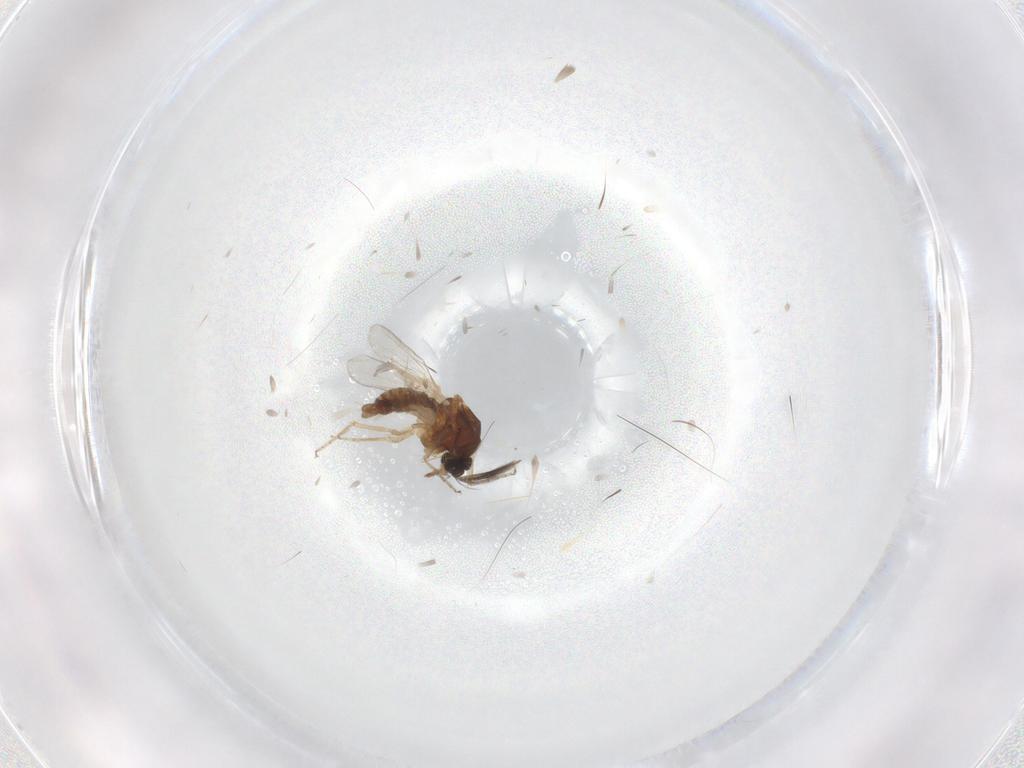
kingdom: Animalia
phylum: Arthropoda
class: Insecta
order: Diptera
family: Ceratopogonidae
